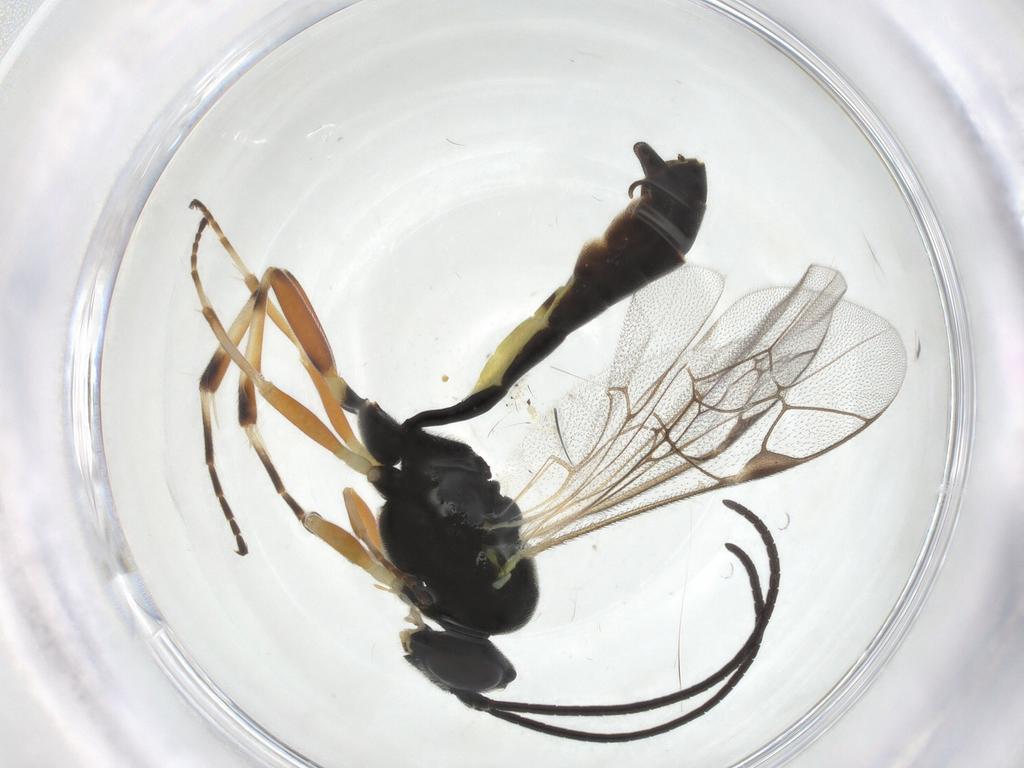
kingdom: Animalia
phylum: Arthropoda
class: Insecta
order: Hymenoptera
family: Ichneumonidae
